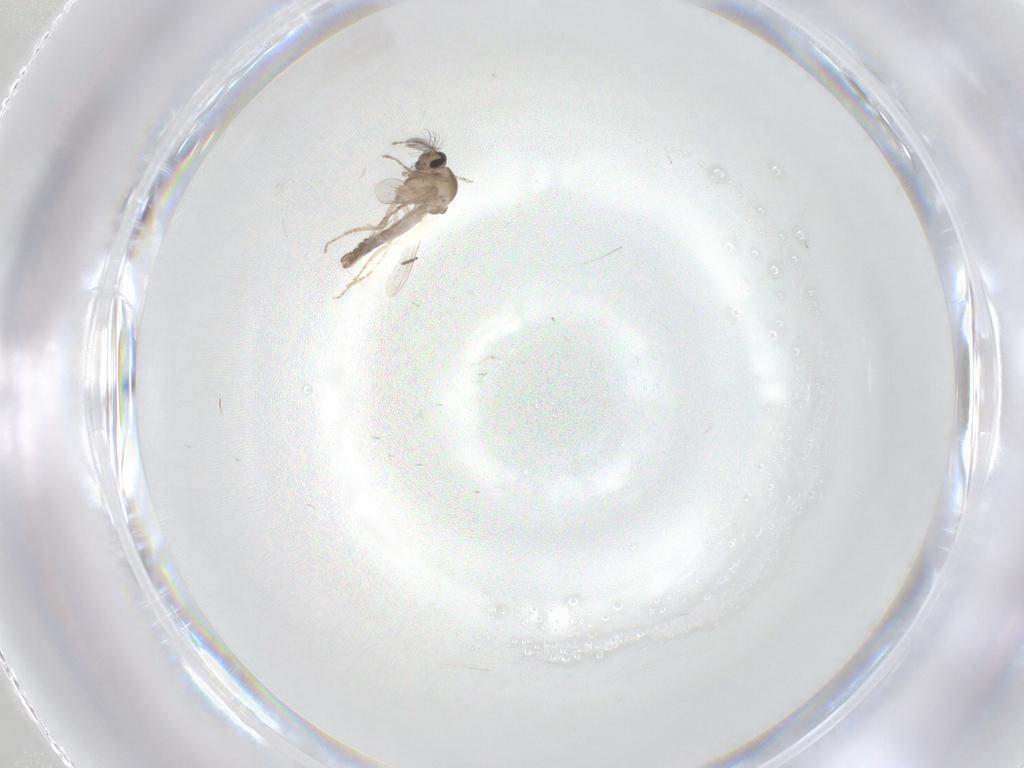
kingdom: Animalia
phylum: Arthropoda
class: Insecta
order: Diptera
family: Ceratopogonidae
